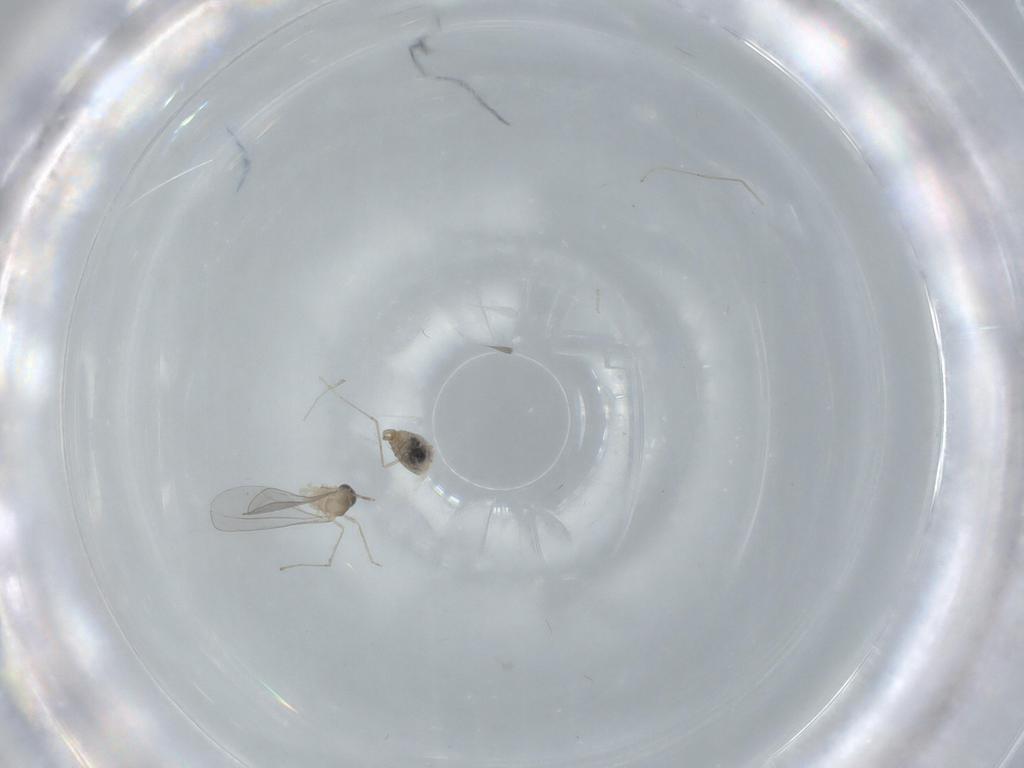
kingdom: Animalia
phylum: Arthropoda
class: Insecta
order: Diptera
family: Cecidomyiidae
